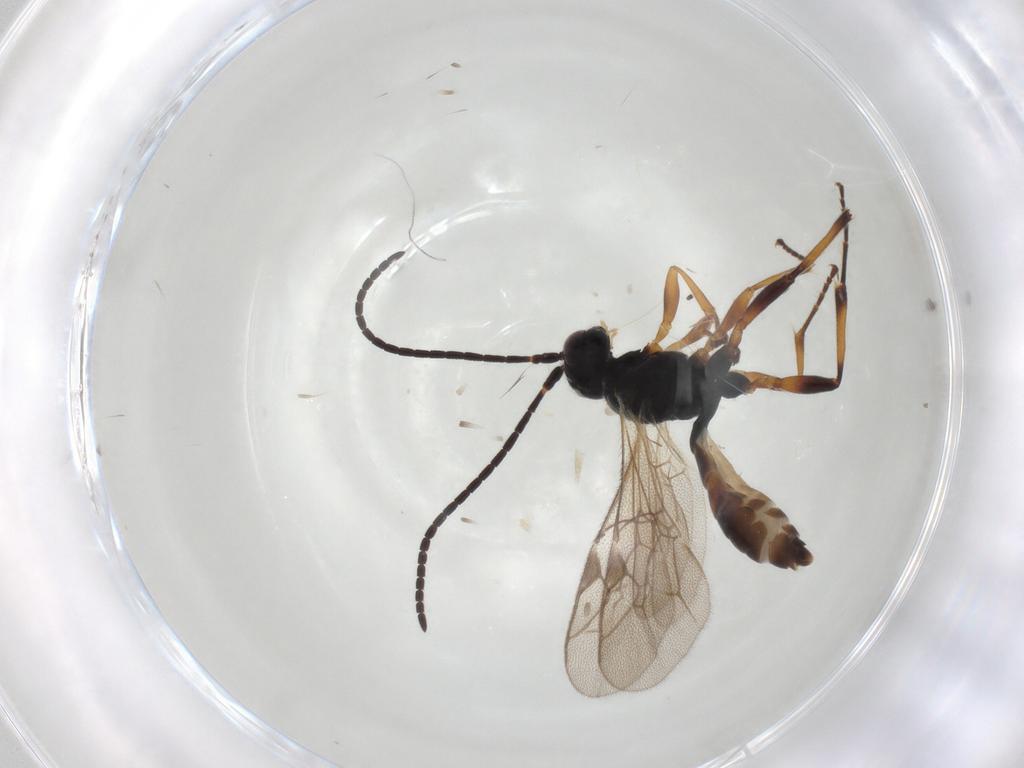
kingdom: Animalia
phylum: Arthropoda
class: Insecta
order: Hymenoptera
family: Ichneumonidae
